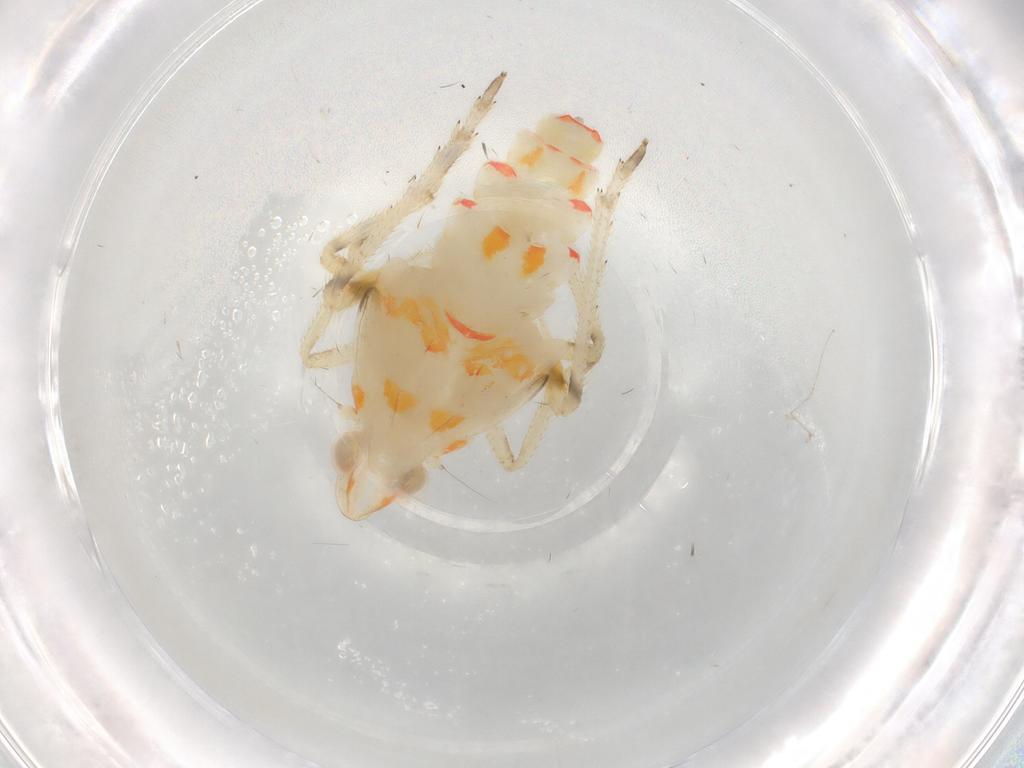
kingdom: Animalia
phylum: Arthropoda
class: Insecta
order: Hemiptera
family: Tropiduchidae
